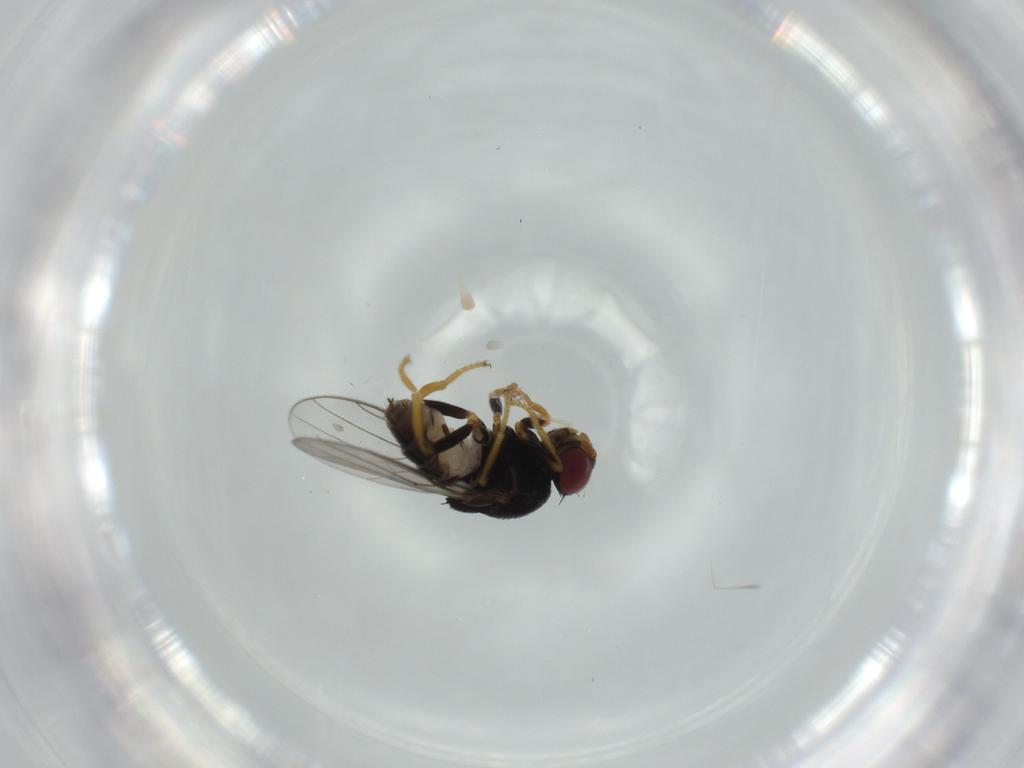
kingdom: Animalia
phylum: Arthropoda
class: Insecta
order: Diptera
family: Chloropidae
